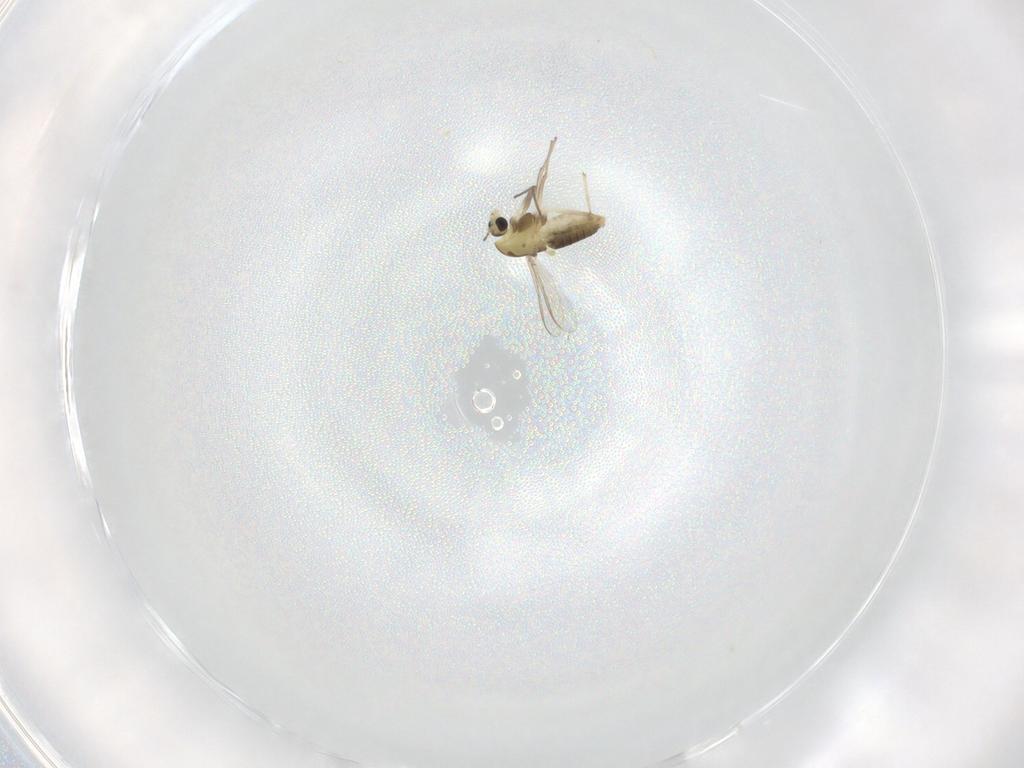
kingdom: Animalia
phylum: Arthropoda
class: Insecta
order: Diptera
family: Chironomidae
